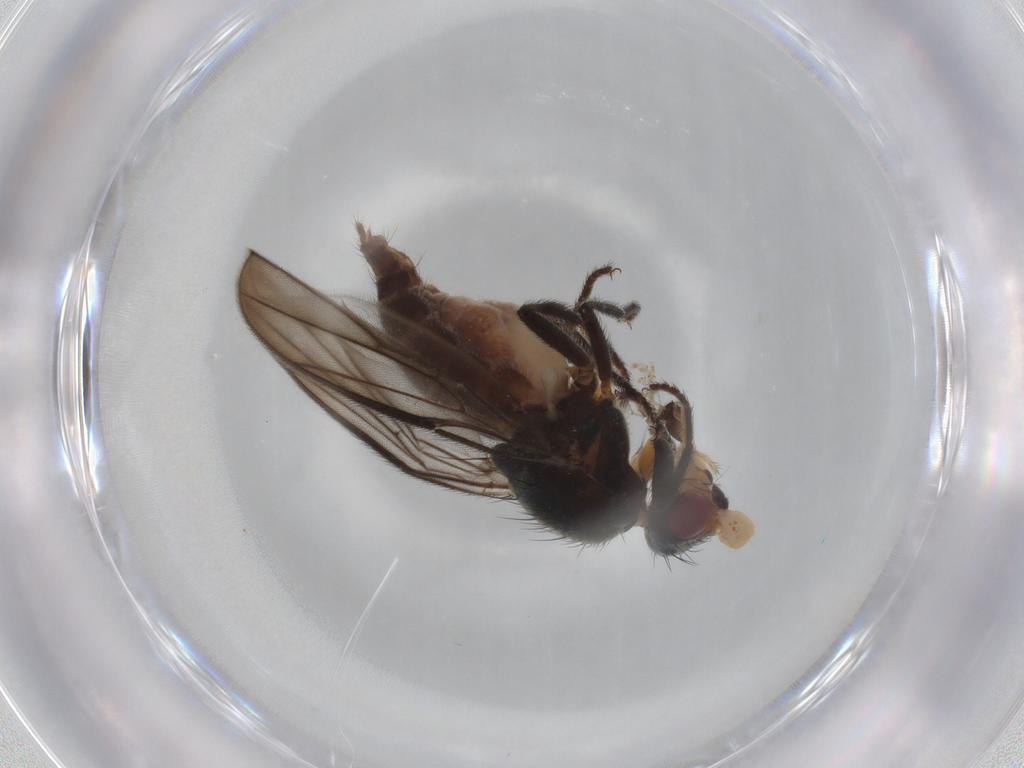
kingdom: Animalia
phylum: Arthropoda
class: Insecta
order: Diptera
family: Chloropidae
